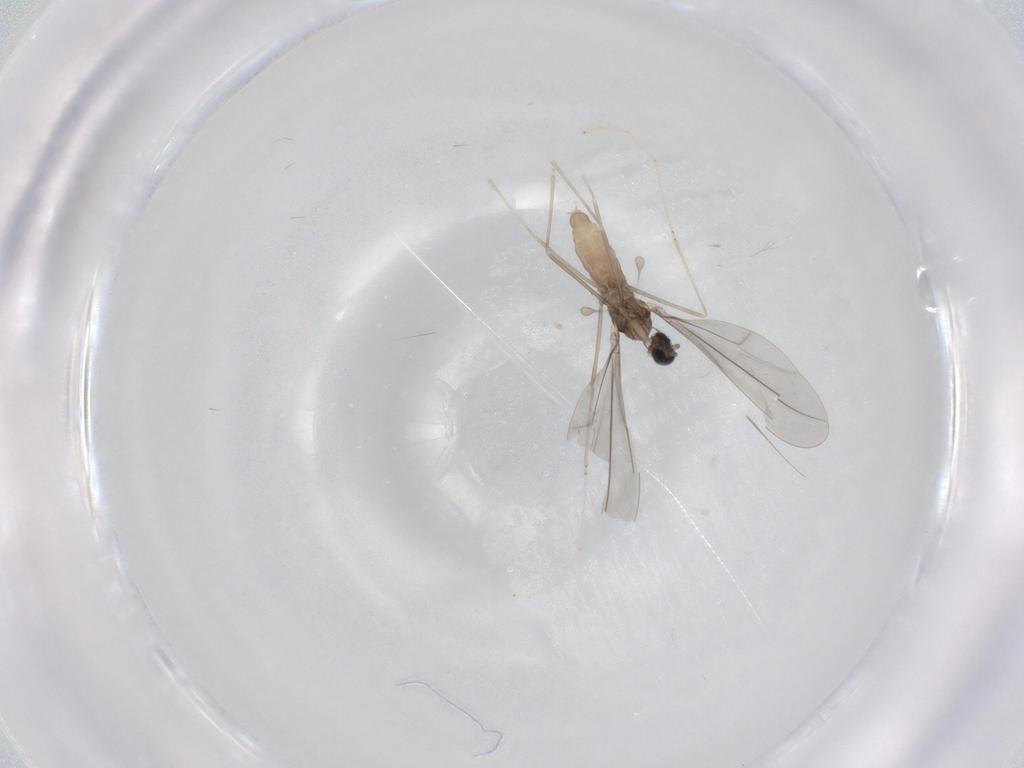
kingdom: Animalia
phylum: Arthropoda
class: Insecta
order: Diptera
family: Cecidomyiidae
